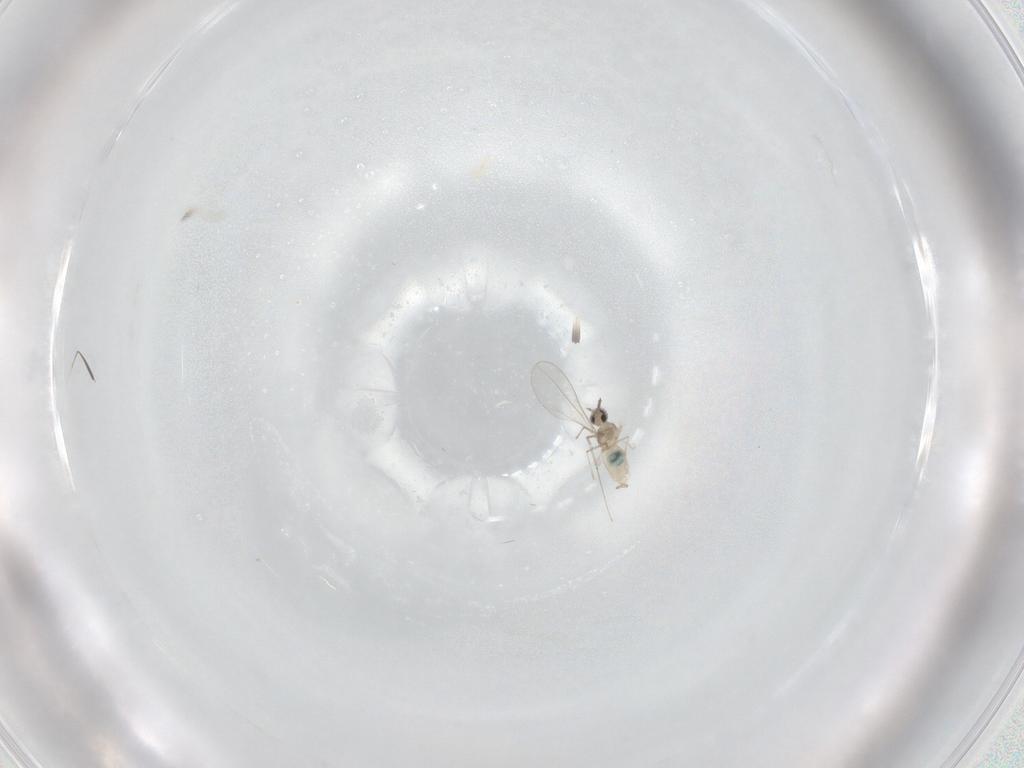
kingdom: Animalia
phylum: Arthropoda
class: Insecta
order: Diptera
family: Cecidomyiidae
